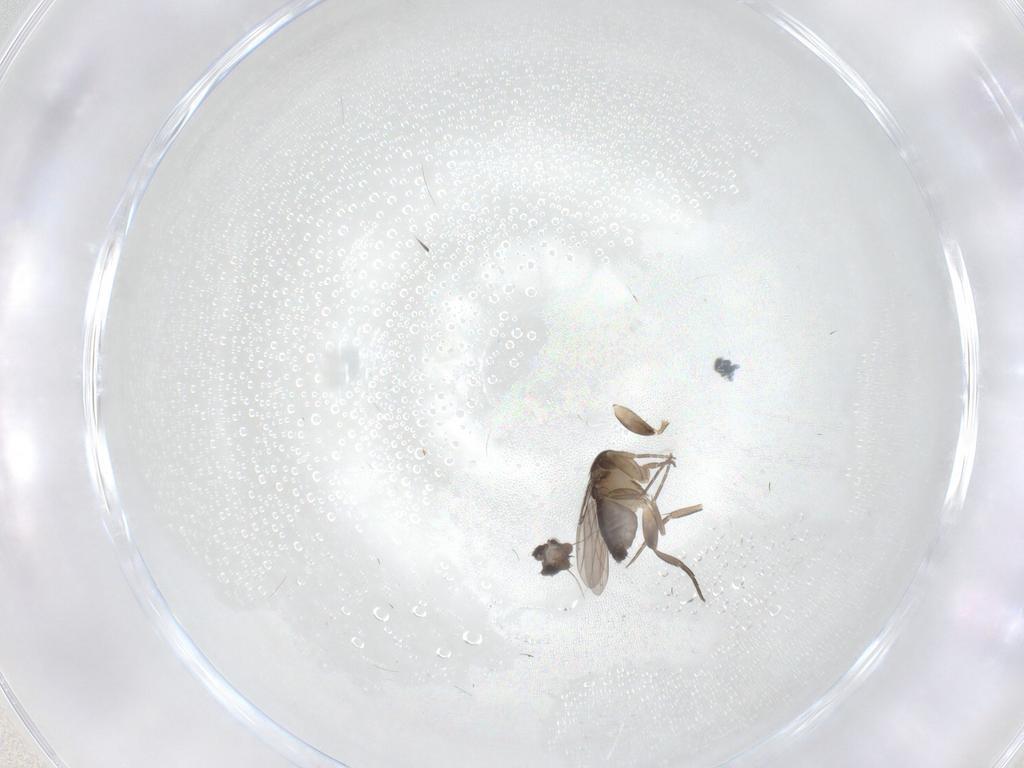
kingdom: Animalia
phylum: Arthropoda
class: Insecta
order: Diptera
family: Phoridae
